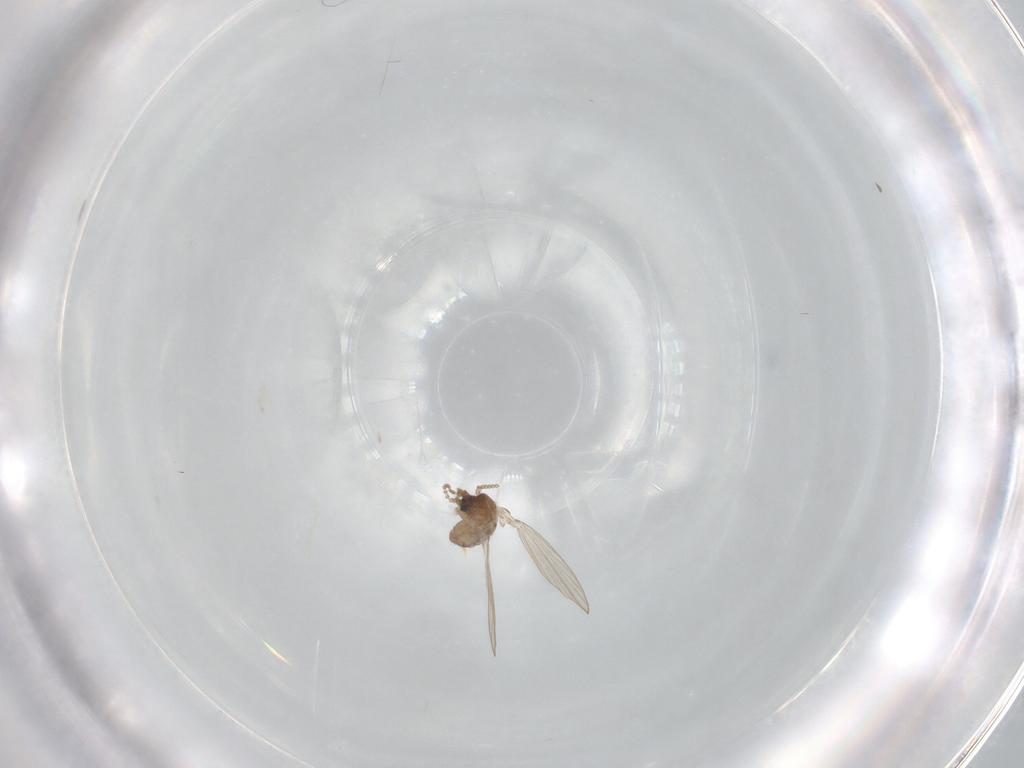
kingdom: Animalia
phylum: Arthropoda
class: Insecta
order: Diptera
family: Psychodidae
